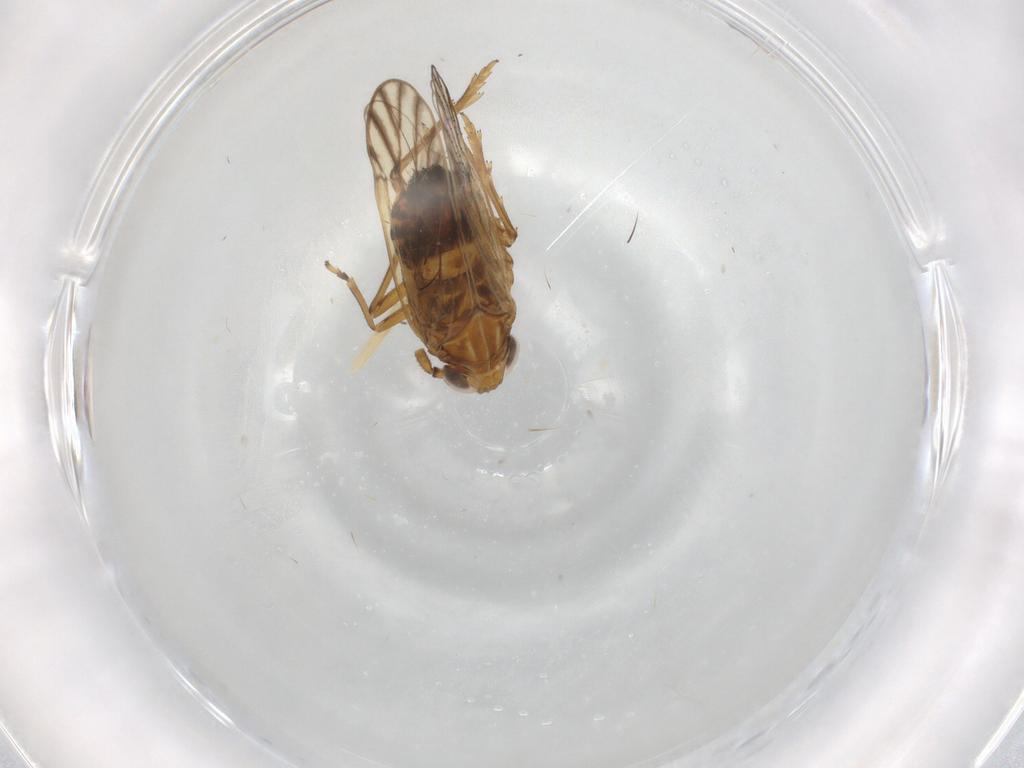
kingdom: Animalia
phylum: Arthropoda
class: Insecta
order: Hemiptera
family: Delphacidae
